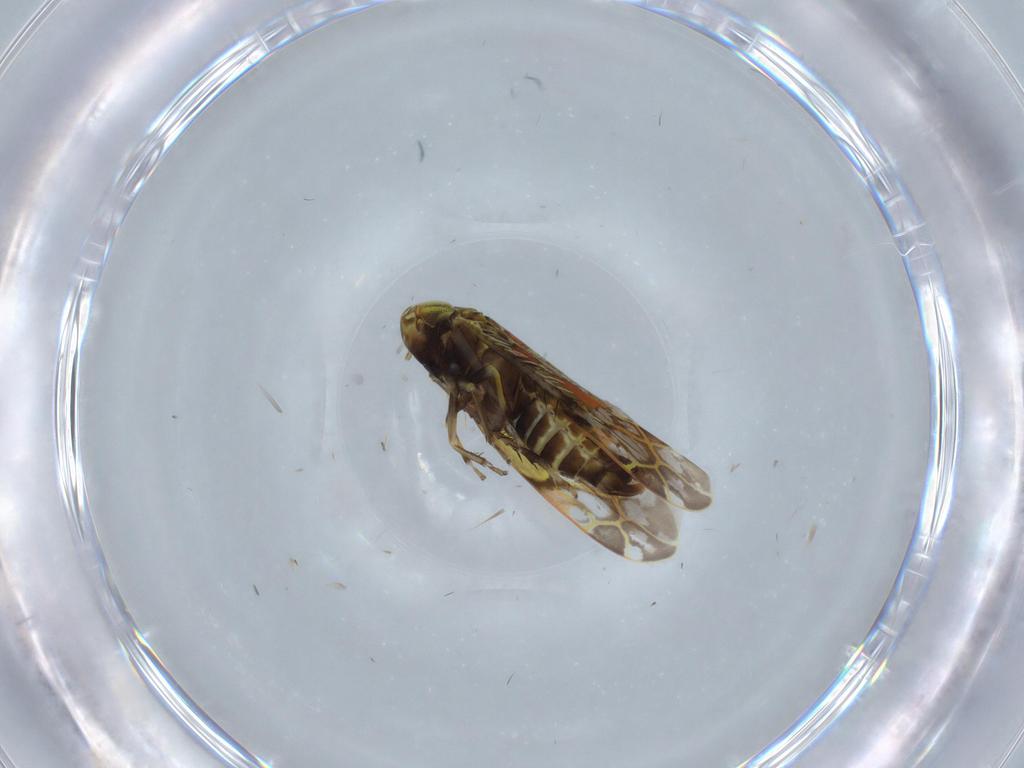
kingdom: Animalia
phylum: Arthropoda
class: Insecta
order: Hemiptera
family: Cicadellidae
